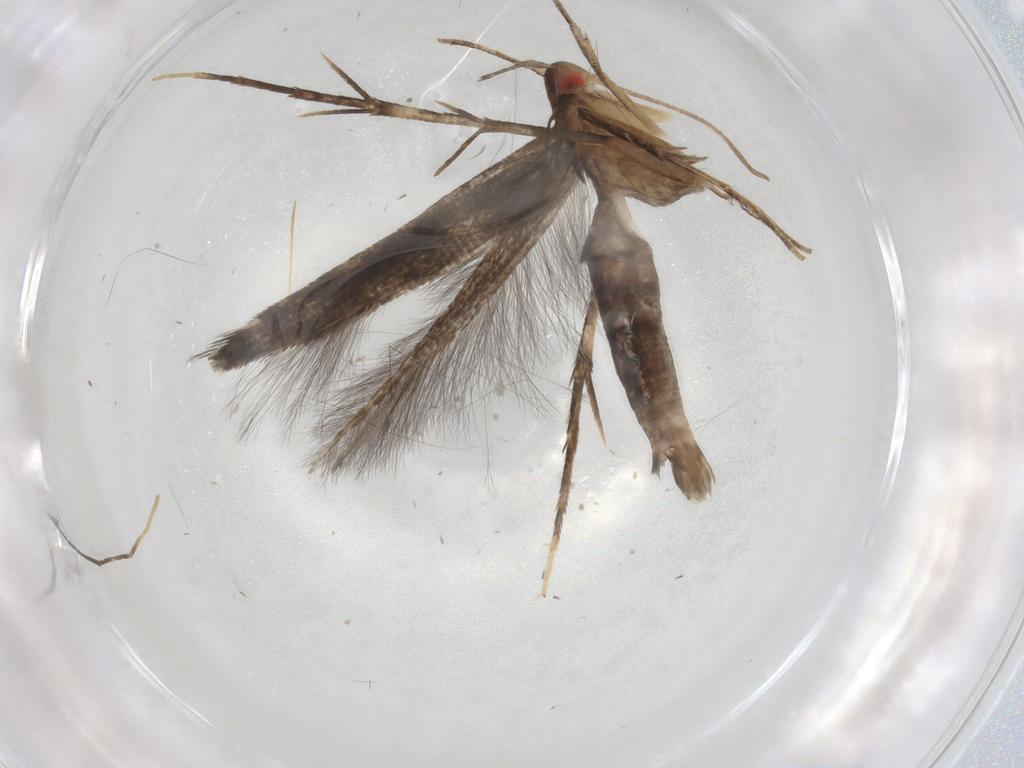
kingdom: Animalia
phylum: Arthropoda
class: Insecta
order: Lepidoptera
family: Cosmopterigidae
